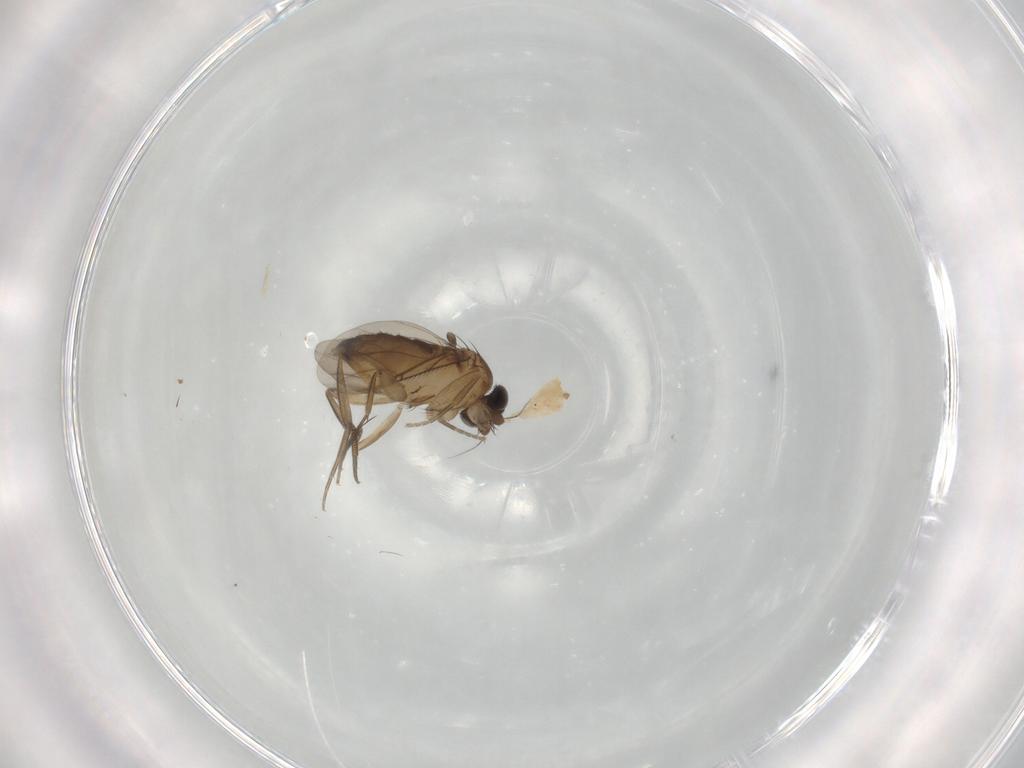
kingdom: Animalia
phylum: Arthropoda
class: Insecta
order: Diptera
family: Cecidomyiidae
